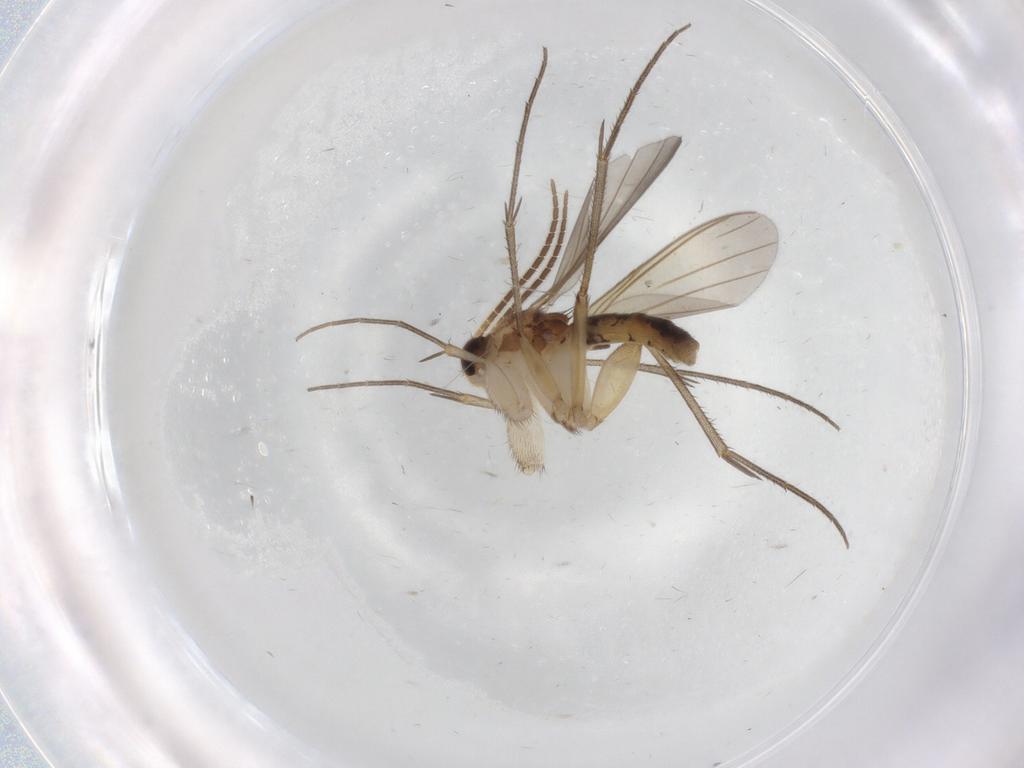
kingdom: Animalia
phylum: Arthropoda
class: Insecta
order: Diptera
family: Mycetophilidae
